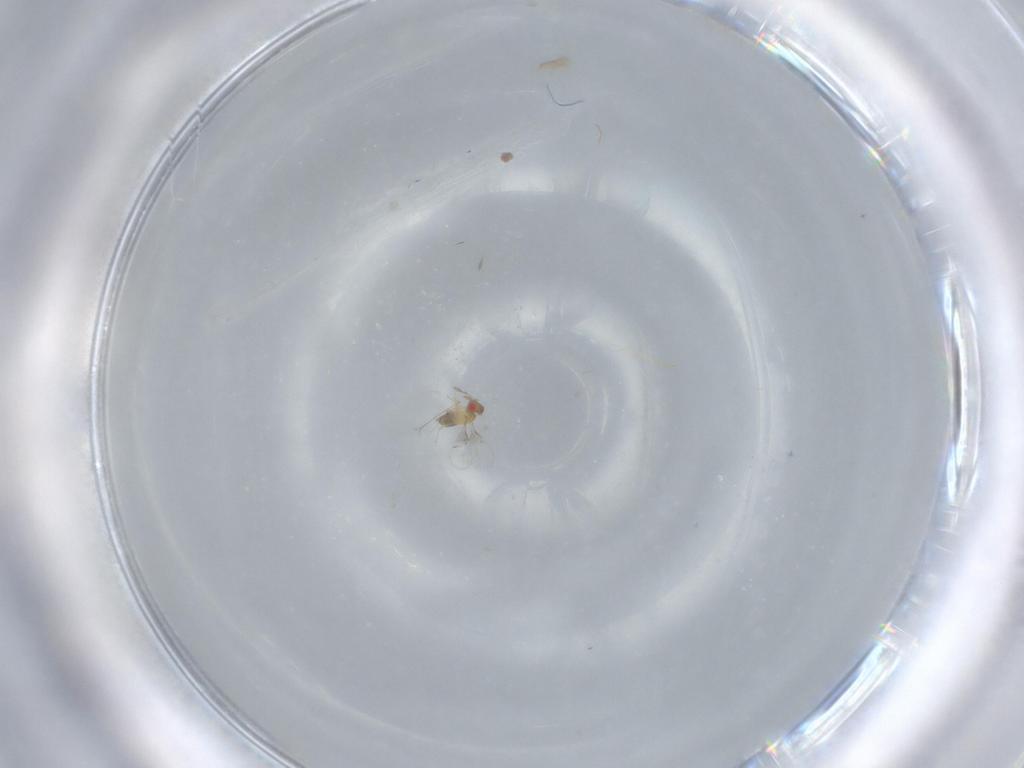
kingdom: Animalia
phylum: Arthropoda
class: Insecta
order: Hymenoptera
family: Trichogrammatidae
